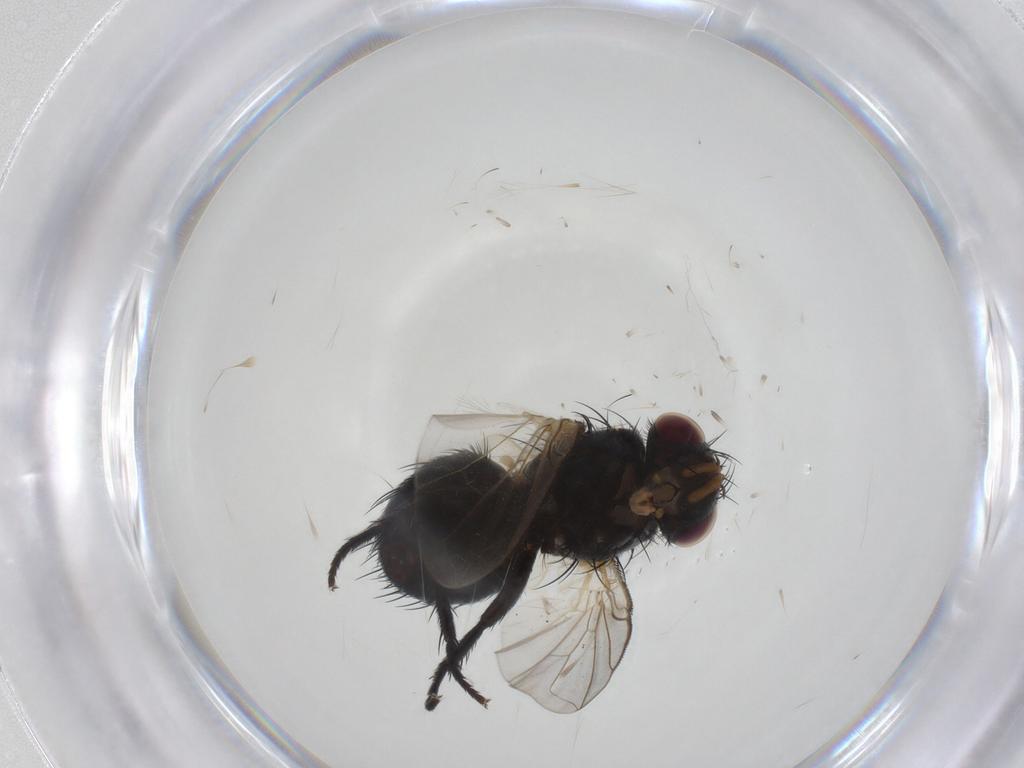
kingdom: Animalia
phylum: Arthropoda
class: Insecta
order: Diptera
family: Tachinidae
